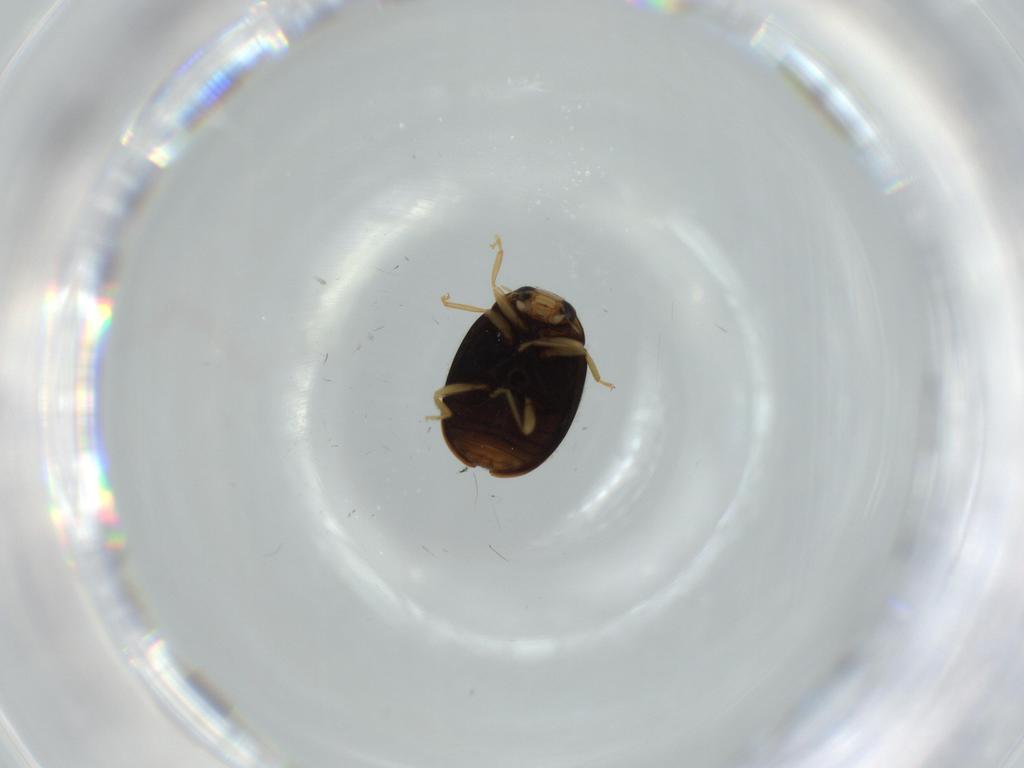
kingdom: Animalia
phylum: Arthropoda
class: Insecta
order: Coleoptera
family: Coccinellidae
